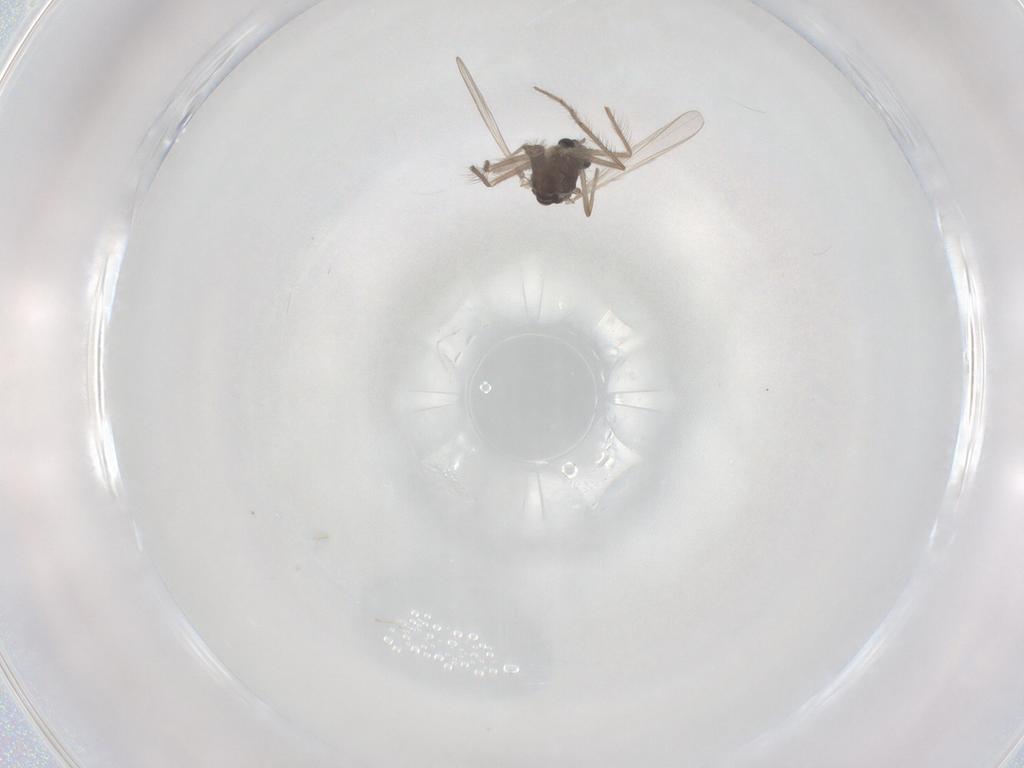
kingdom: Animalia
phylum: Arthropoda
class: Insecta
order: Diptera
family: Chironomidae
